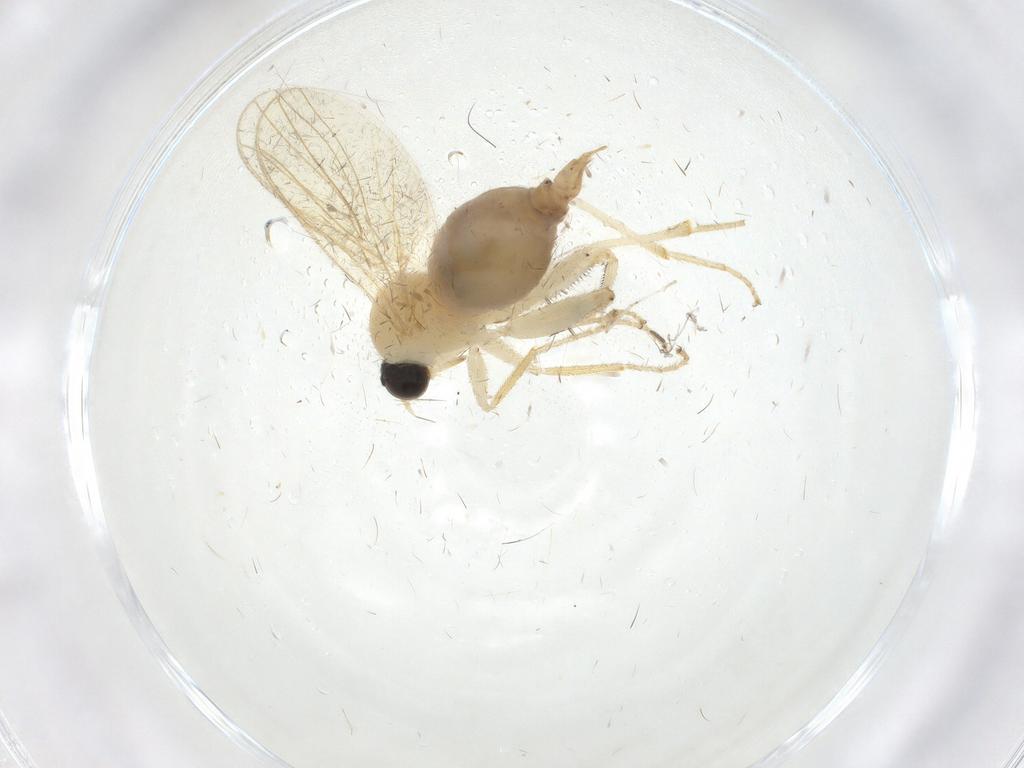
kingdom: Animalia
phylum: Arthropoda
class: Insecta
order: Diptera
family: Hybotidae
